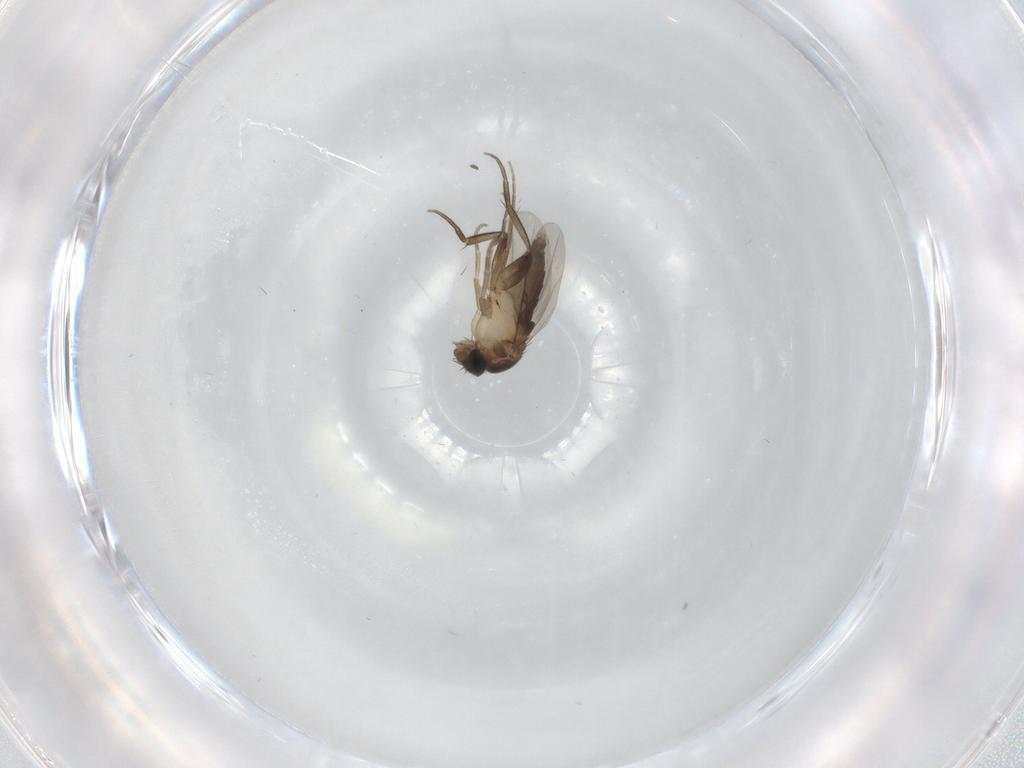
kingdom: Animalia
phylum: Arthropoda
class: Insecta
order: Diptera
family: Phoridae
